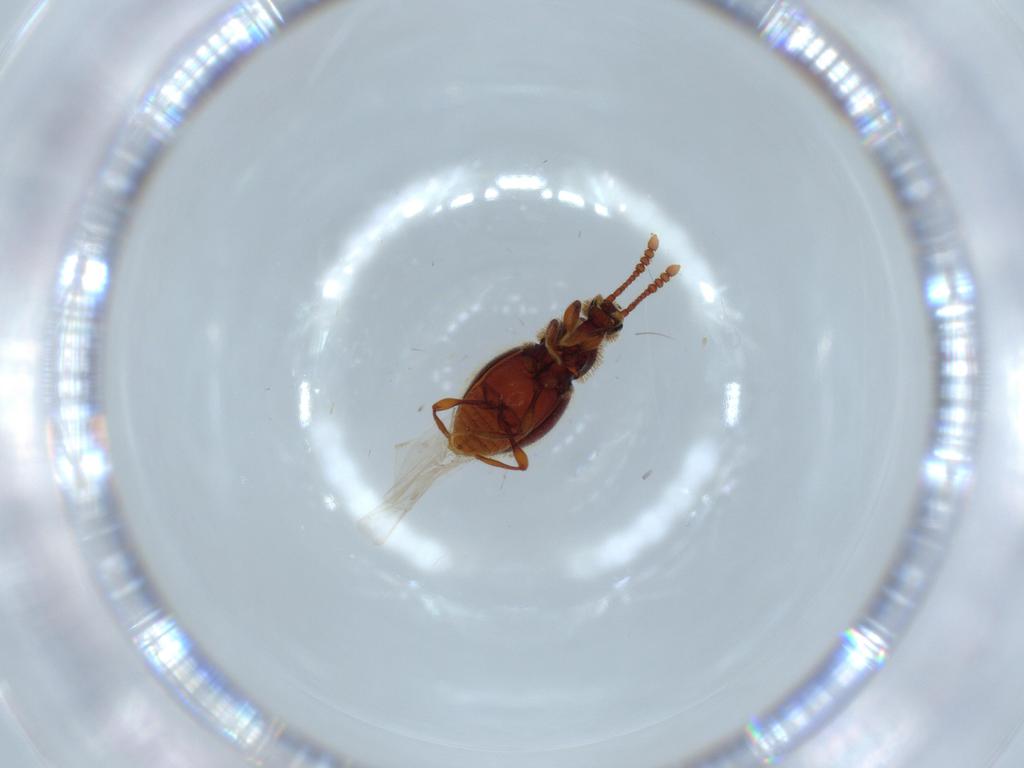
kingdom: Animalia
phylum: Arthropoda
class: Insecta
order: Coleoptera
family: Staphylinidae
